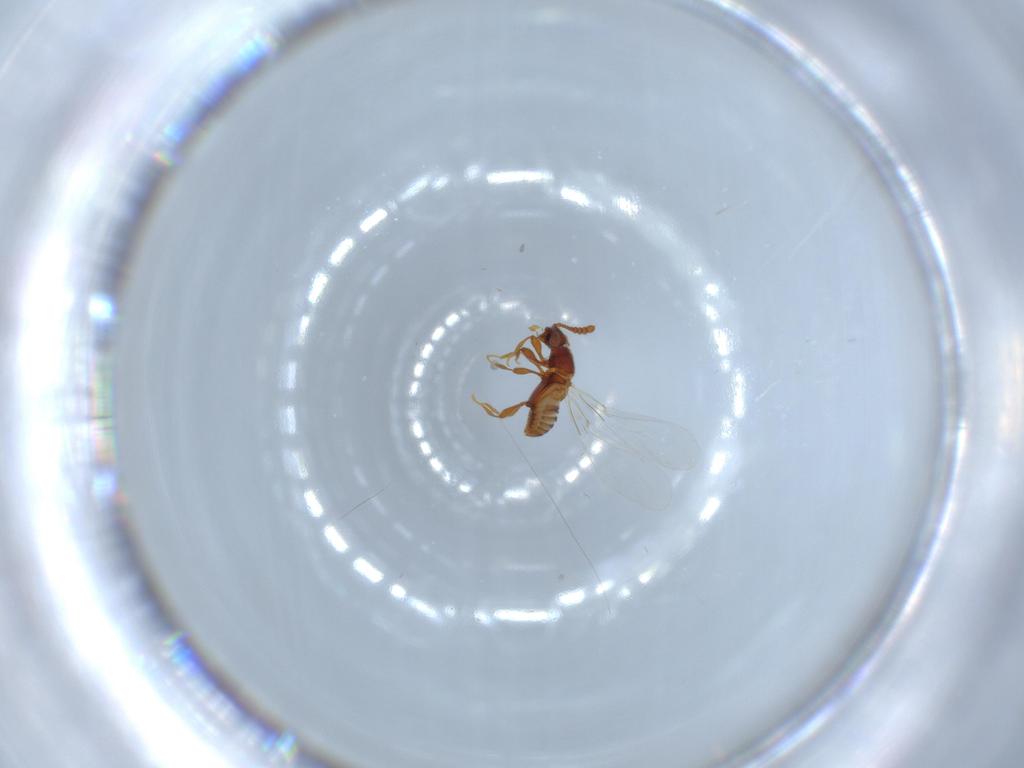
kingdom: Animalia
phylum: Arthropoda
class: Insecta
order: Coleoptera
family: Staphylinidae
